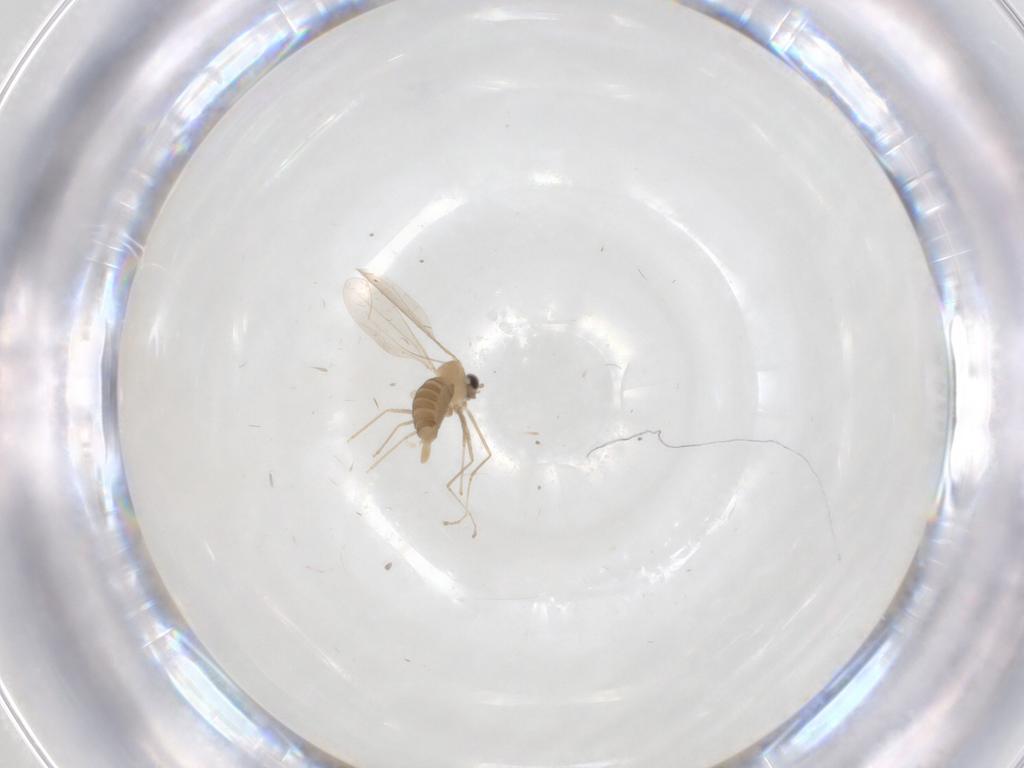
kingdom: Animalia
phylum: Arthropoda
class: Insecta
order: Diptera
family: Cecidomyiidae
